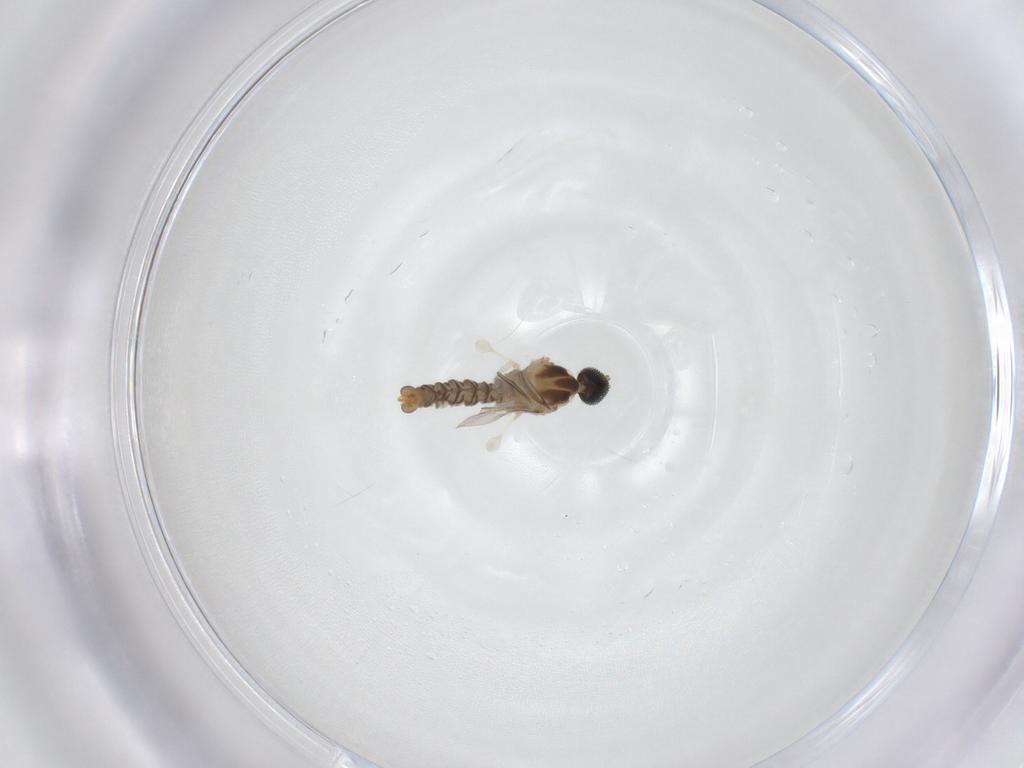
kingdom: Animalia
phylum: Arthropoda
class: Insecta
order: Diptera
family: Chironomidae
